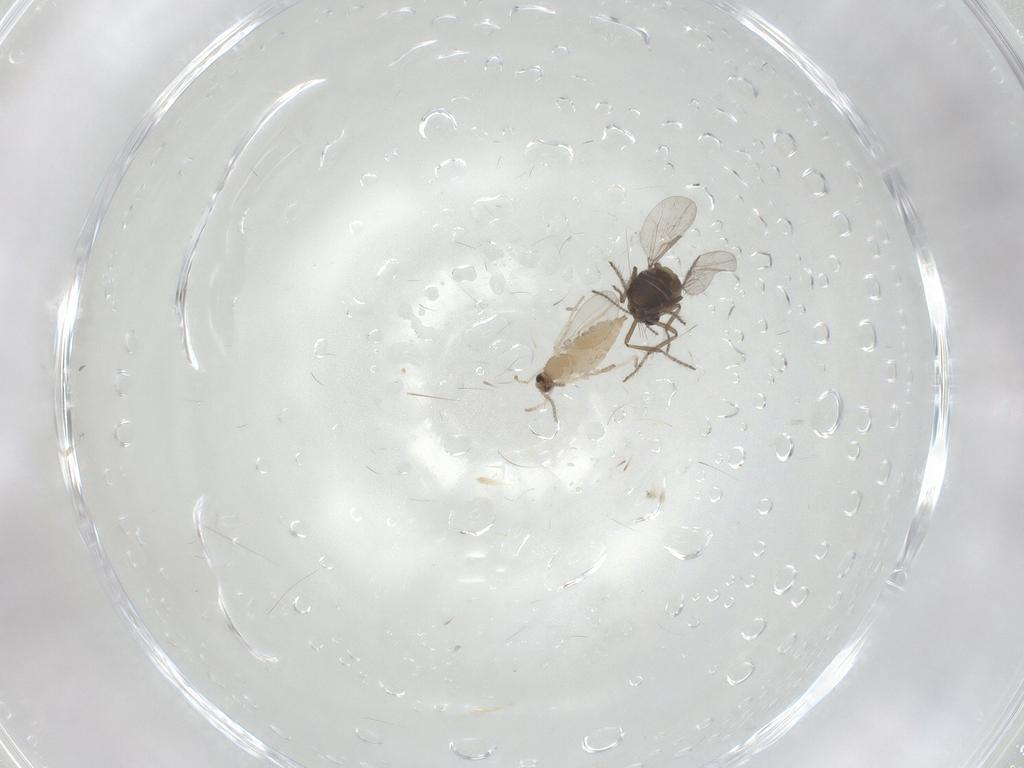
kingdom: Animalia
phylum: Arthropoda
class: Insecta
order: Diptera
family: Ceratopogonidae
